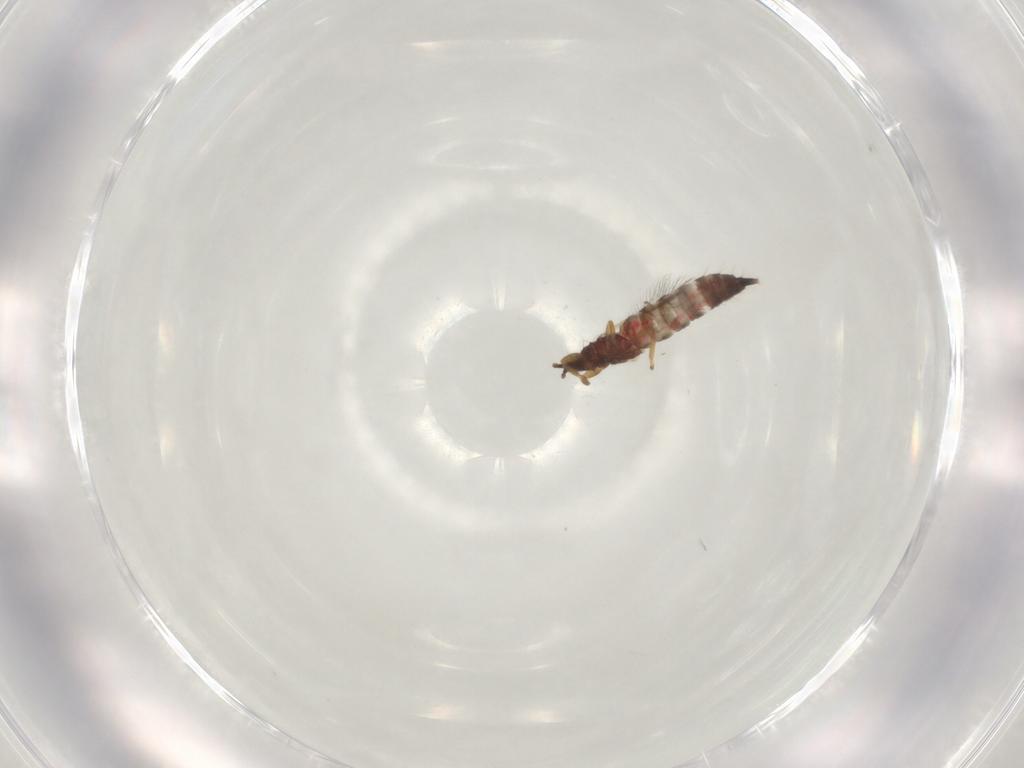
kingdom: Animalia
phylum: Arthropoda
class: Insecta
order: Thysanoptera
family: Phlaeothripidae
